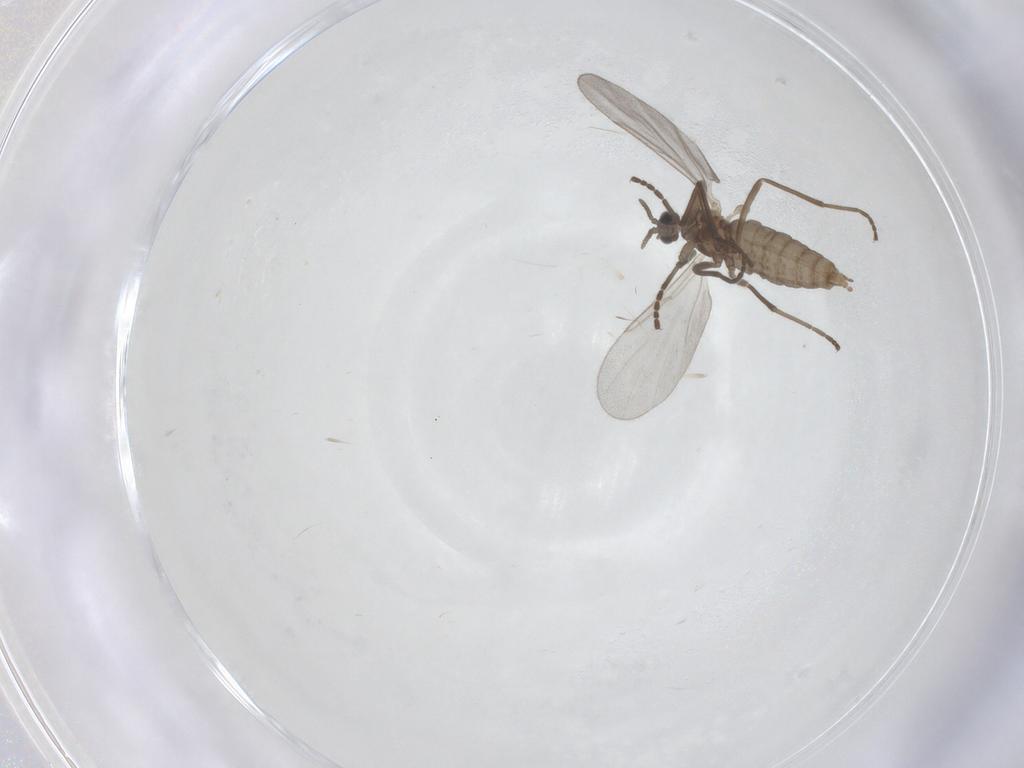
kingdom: Animalia
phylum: Arthropoda
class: Insecta
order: Diptera
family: Cecidomyiidae
